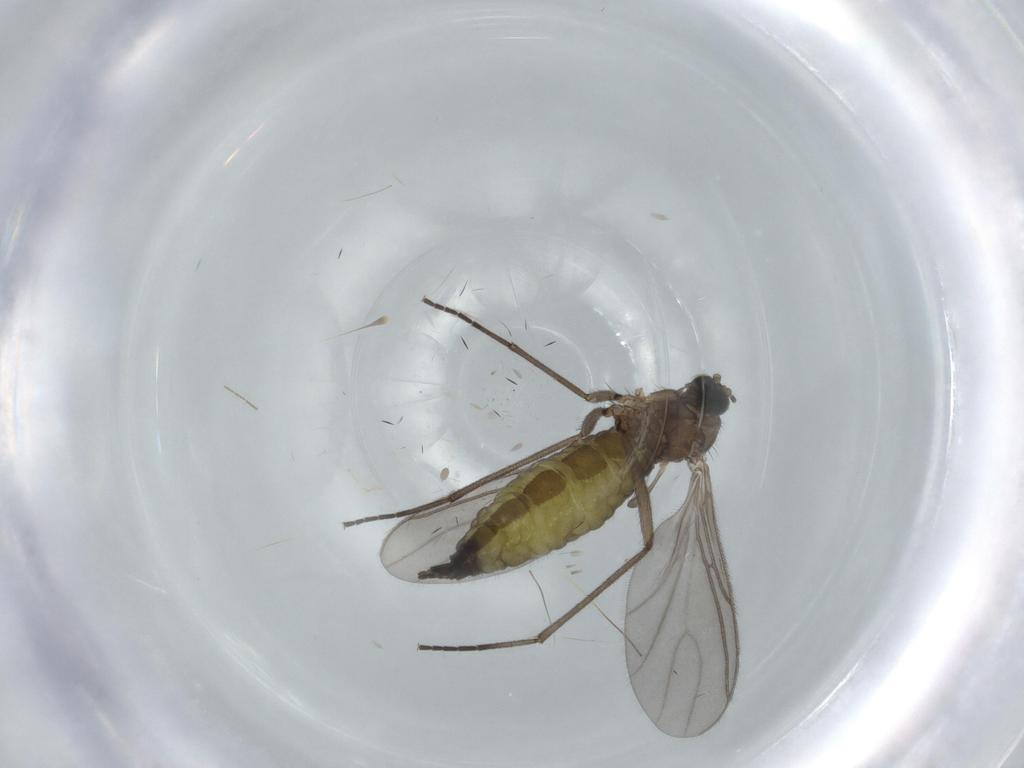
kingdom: Animalia
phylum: Arthropoda
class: Insecta
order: Diptera
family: Sciaridae
